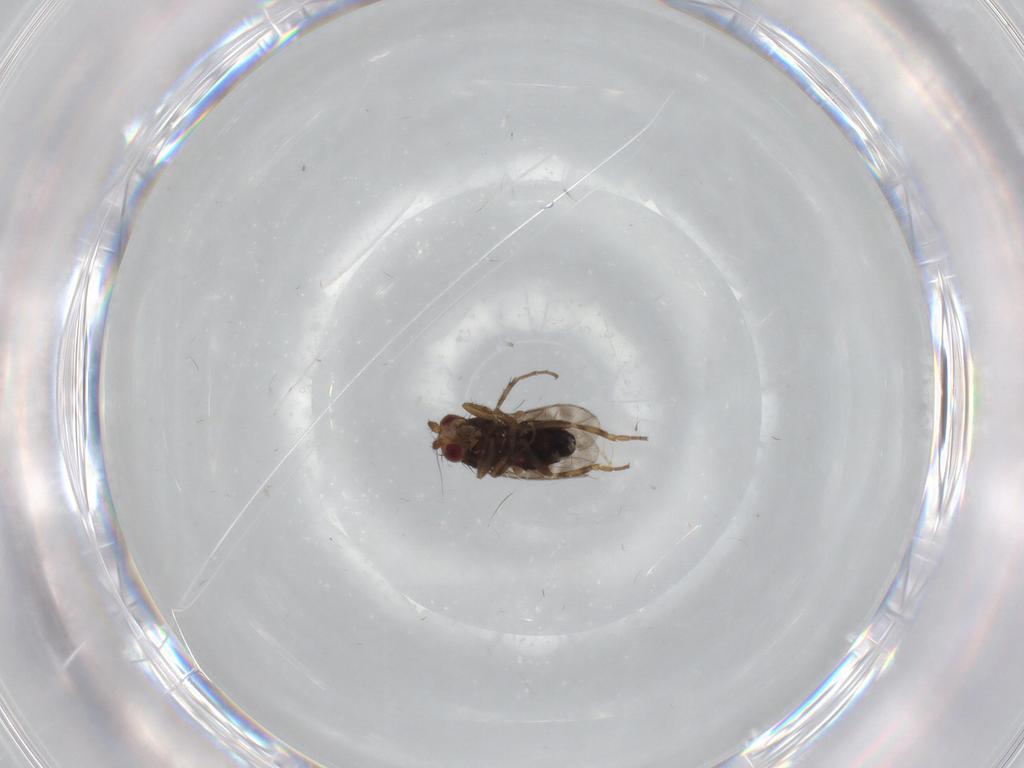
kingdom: Animalia
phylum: Arthropoda
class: Insecta
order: Diptera
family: Sphaeroceridae
